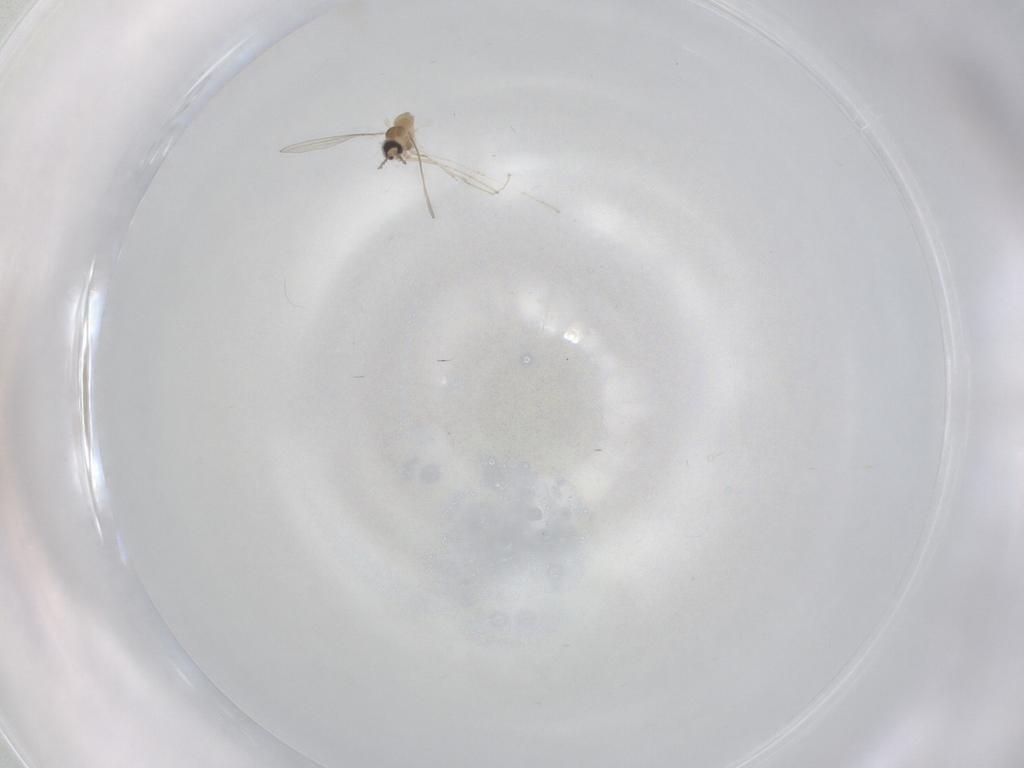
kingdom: Animalia
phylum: Arthropoda
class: Insecta
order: Diptera
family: Cecidomyiidae
